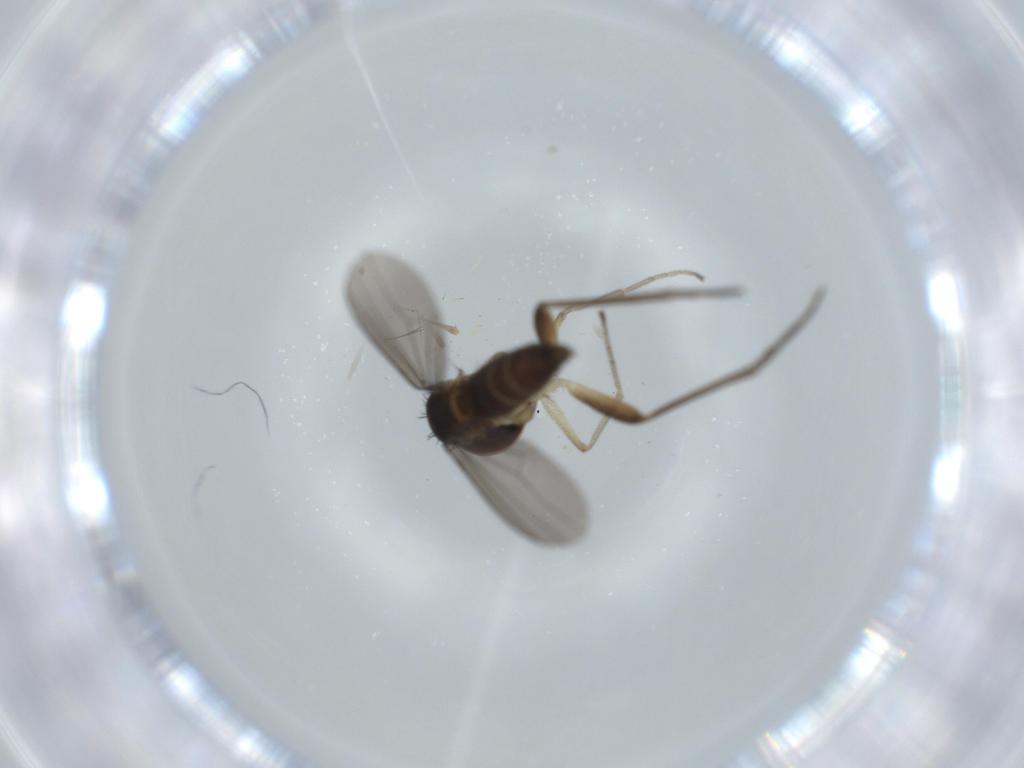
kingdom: Animalia
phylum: Arthropoda
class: Insecta
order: Diptera
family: Dolichopodidae
